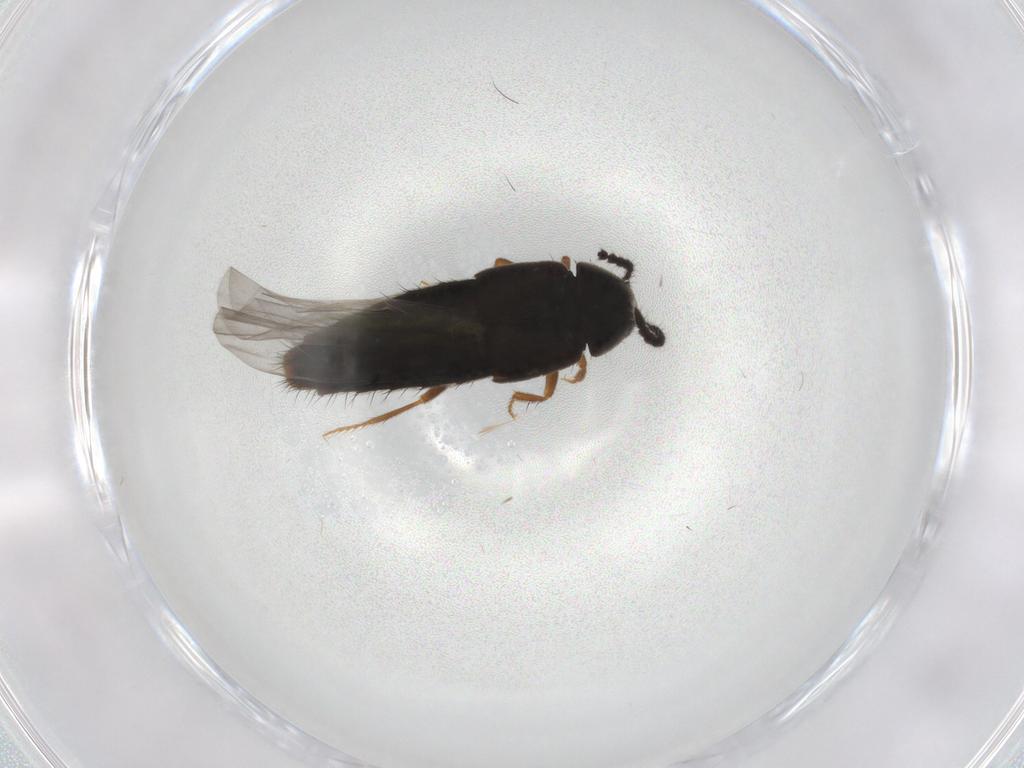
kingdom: Animalia
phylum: Arthropoda
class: Insecta
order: Coleoptera
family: Staphylinidae
